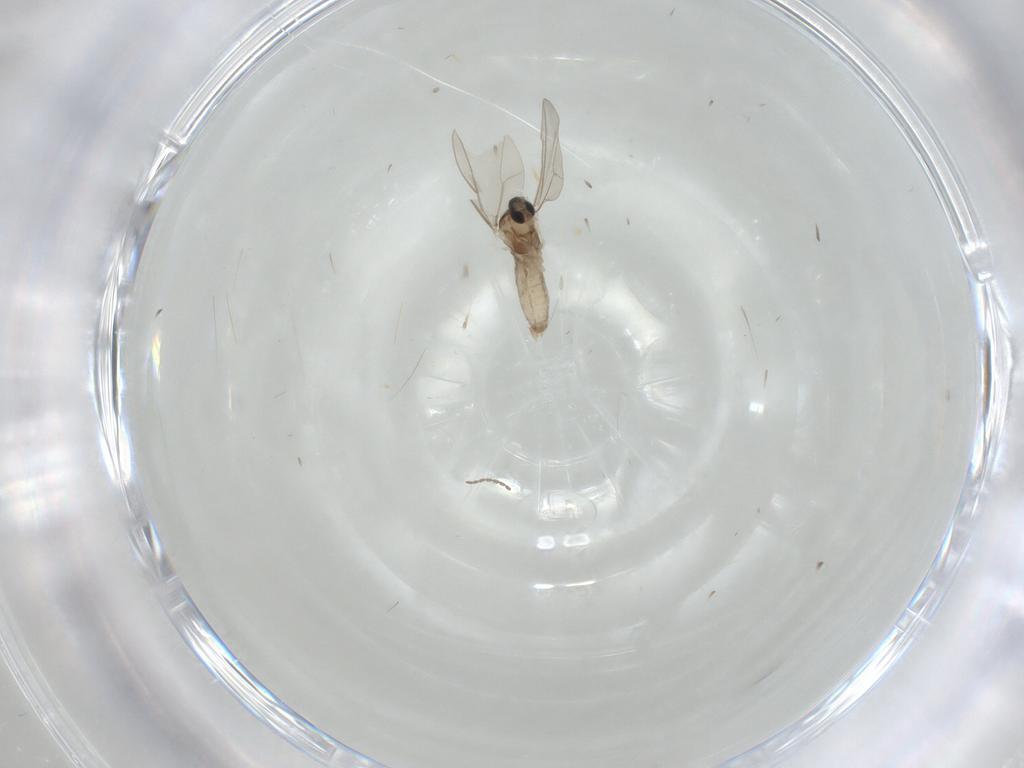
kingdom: Animalia
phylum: Arthropoda
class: Insecta
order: Diptera
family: Cecidomyiidae
